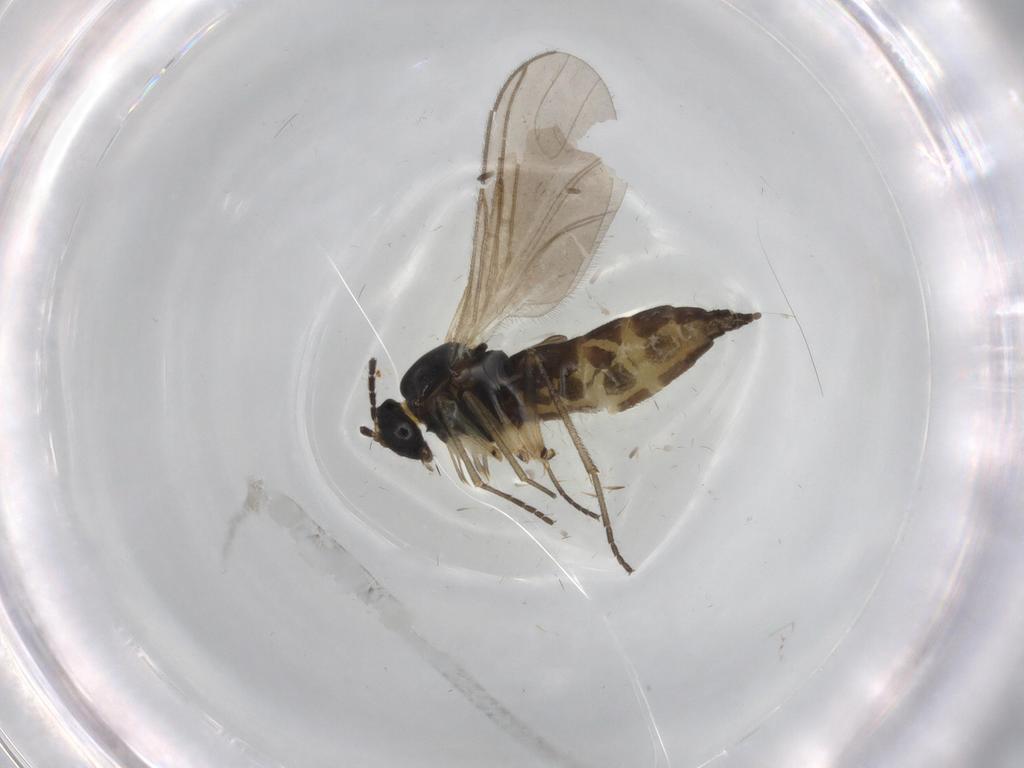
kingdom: Animalia
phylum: Arthropoda
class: Insecta
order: Diptera
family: Sciaridae
